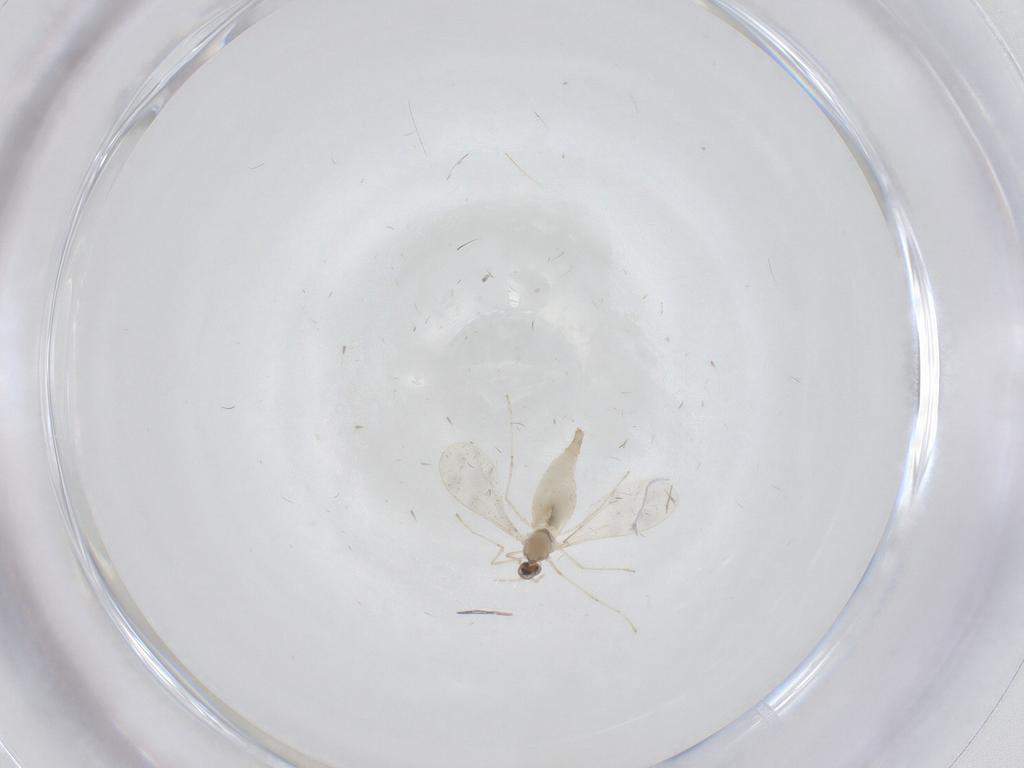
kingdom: Animalia
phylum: Arthropoda
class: Insecta
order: Diptera
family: Cecidomyiidae
